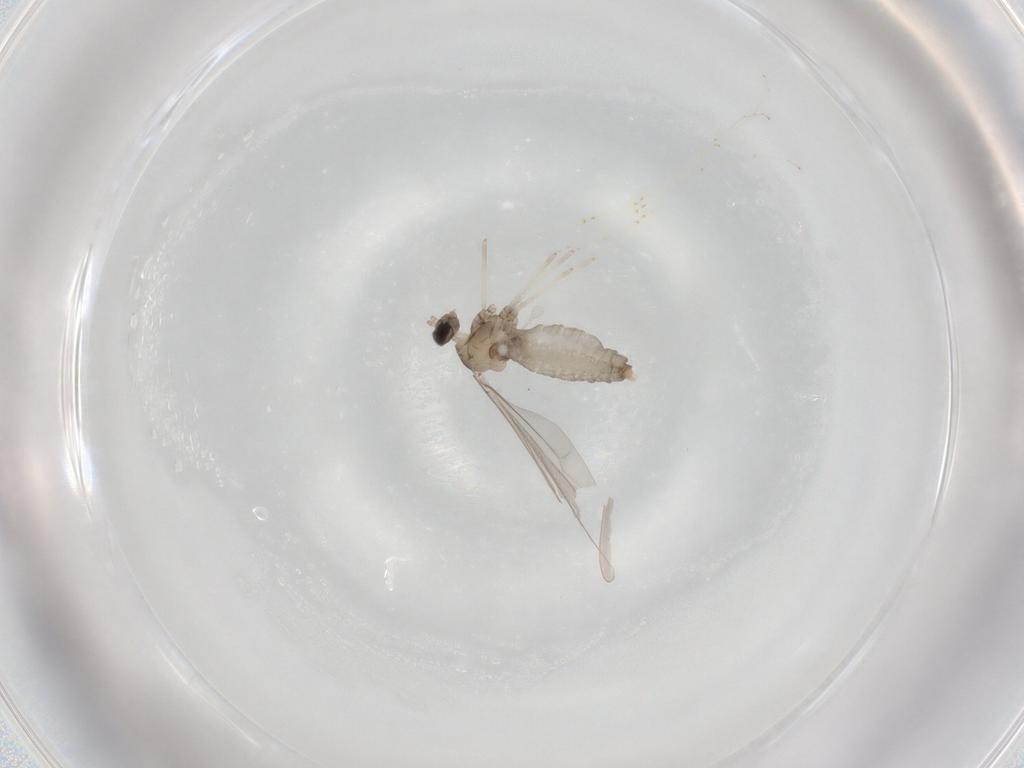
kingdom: Animalia
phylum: Arthropoda
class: Insecta
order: Diptera
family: Cecidomyiidae
